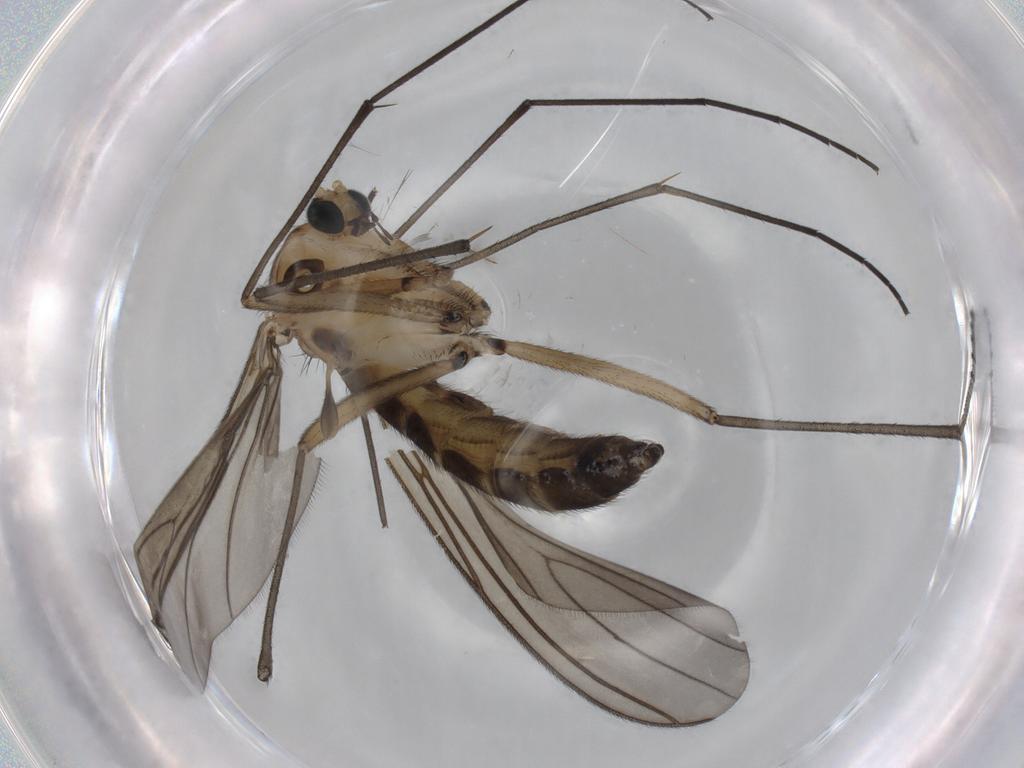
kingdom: Animalia
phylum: Arthropoda
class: Insecta
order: Diptera
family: Sciaridae
